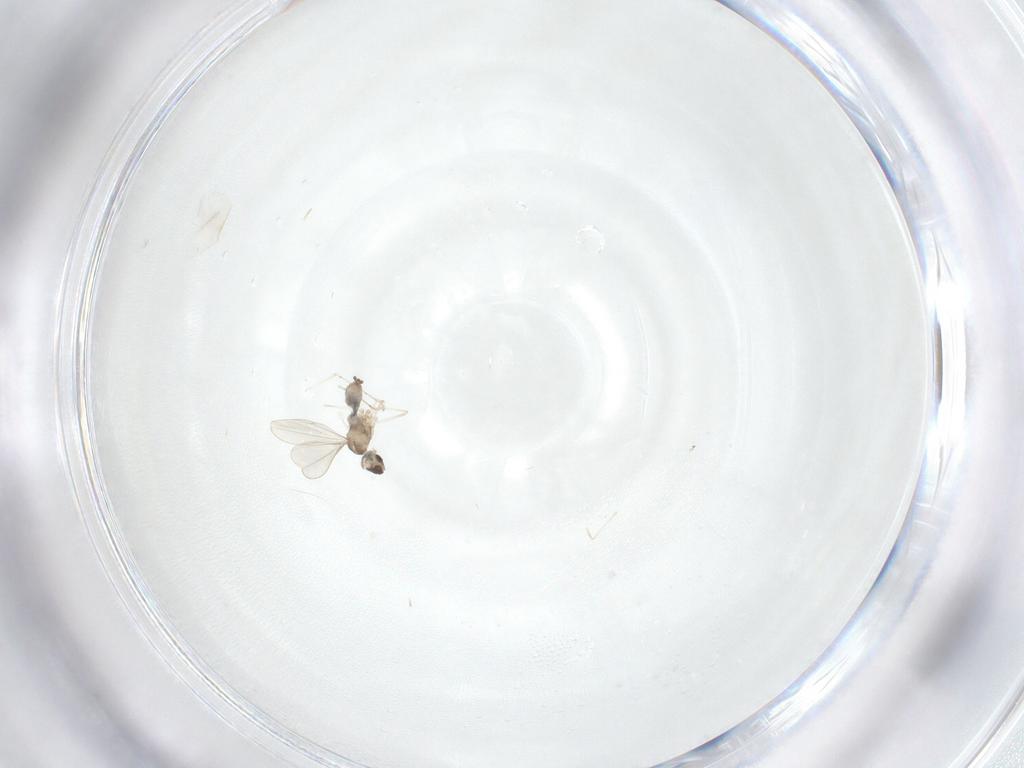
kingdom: Animalia
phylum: Arthropoda
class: Insecta
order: Diptera
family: Cecidomyiidae
